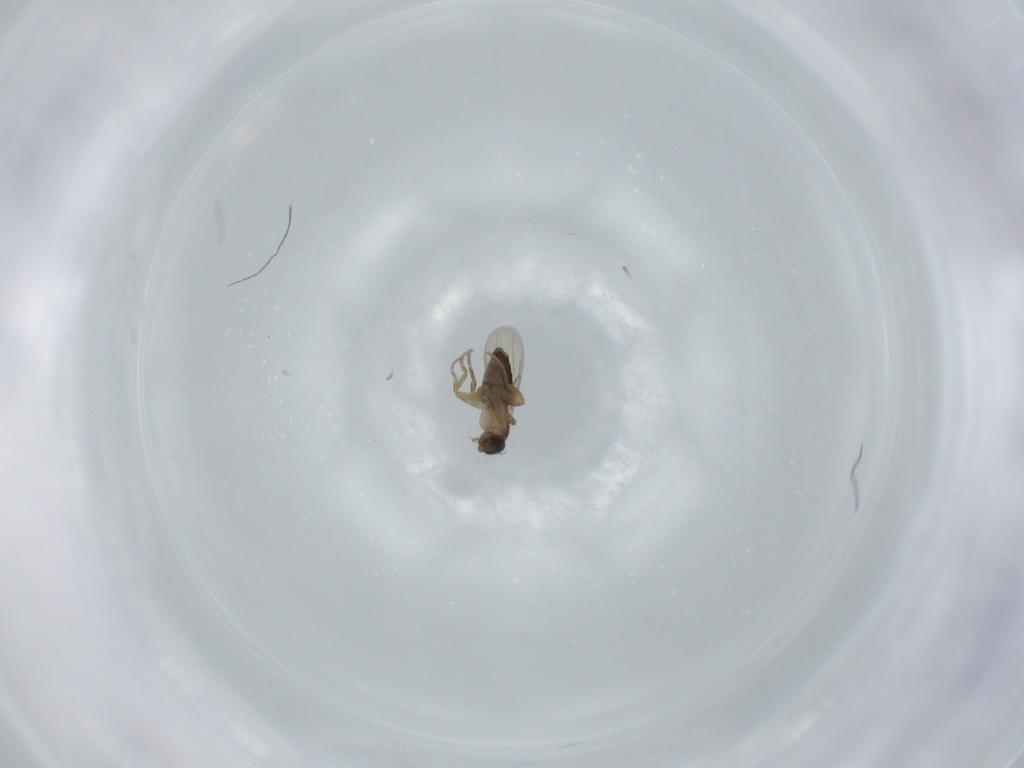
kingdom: Animalia
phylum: Arthropoda
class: Insecta
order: Diptera
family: Phoridae
